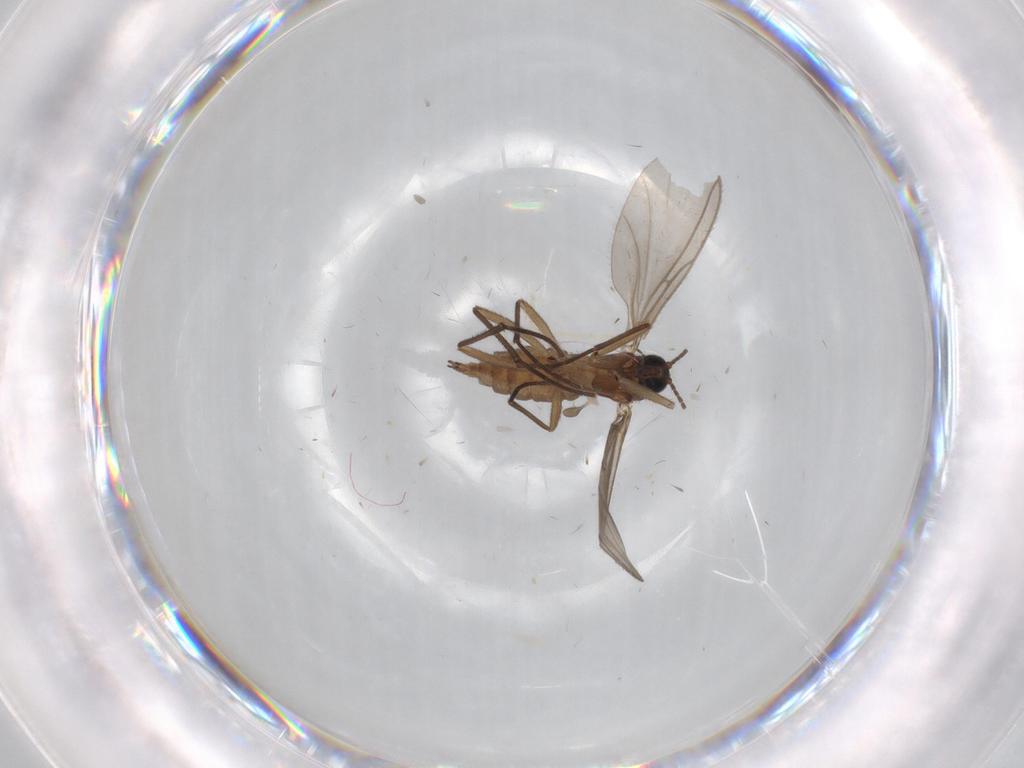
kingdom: Animalia
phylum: Arthropoda
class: Insecta
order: Diptera
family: Sciaridae
